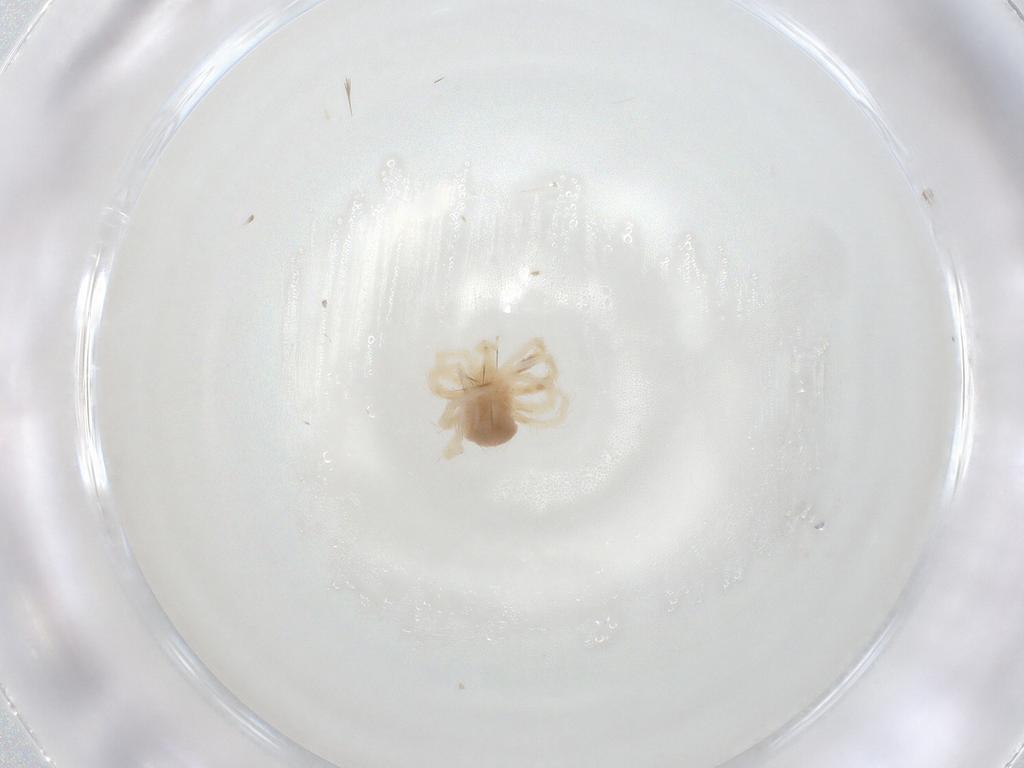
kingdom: Animalia
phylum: Arthropoda
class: Arachnida
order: Trombidiformes
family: Anystidae
